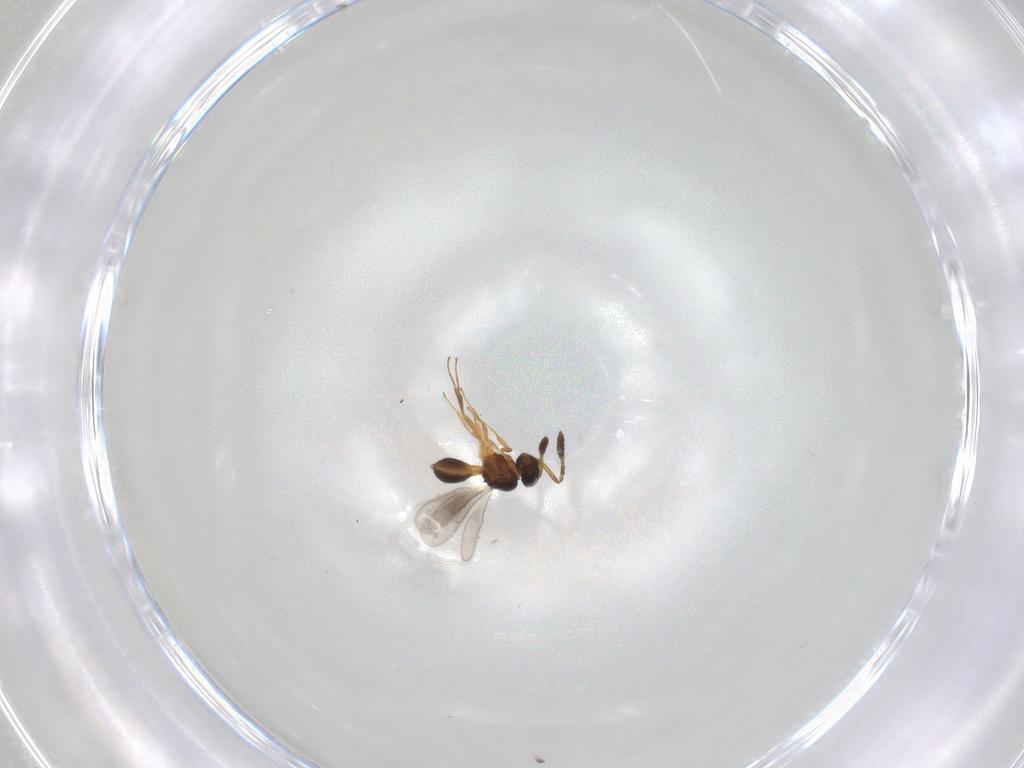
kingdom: Animalia
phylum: Arthropoda
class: Insecta
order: Hymenoptera
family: Eupelmidae
